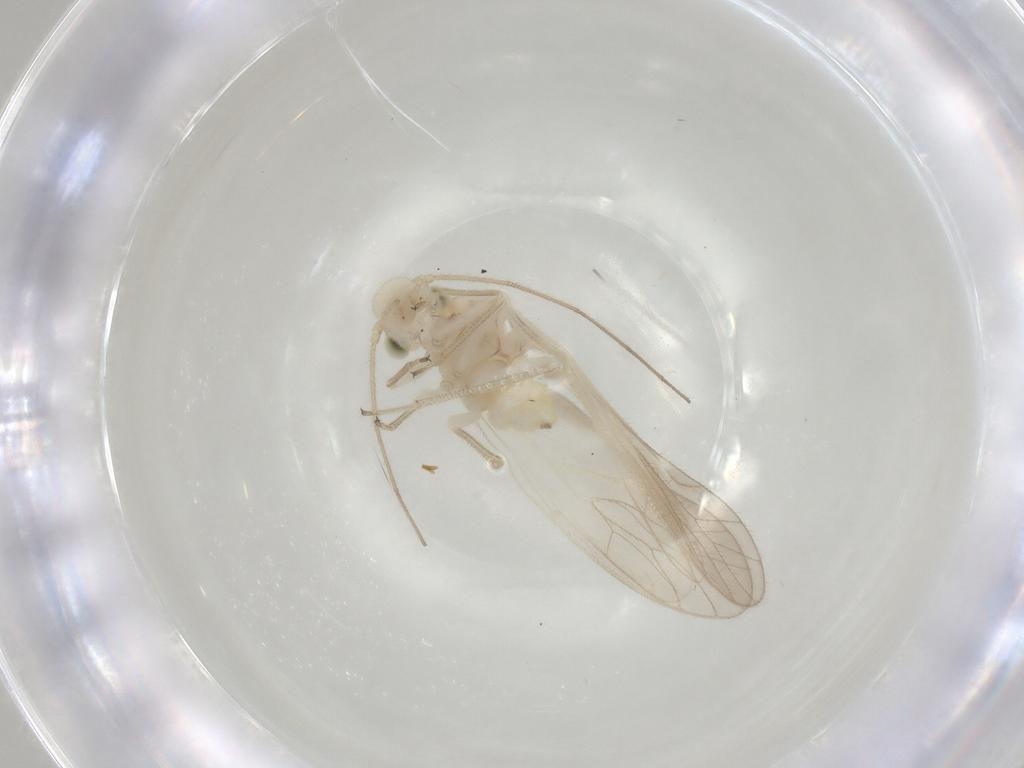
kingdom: Animalia
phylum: Arthropoda
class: Insecta
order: Psocodea
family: Caeciliusidae
